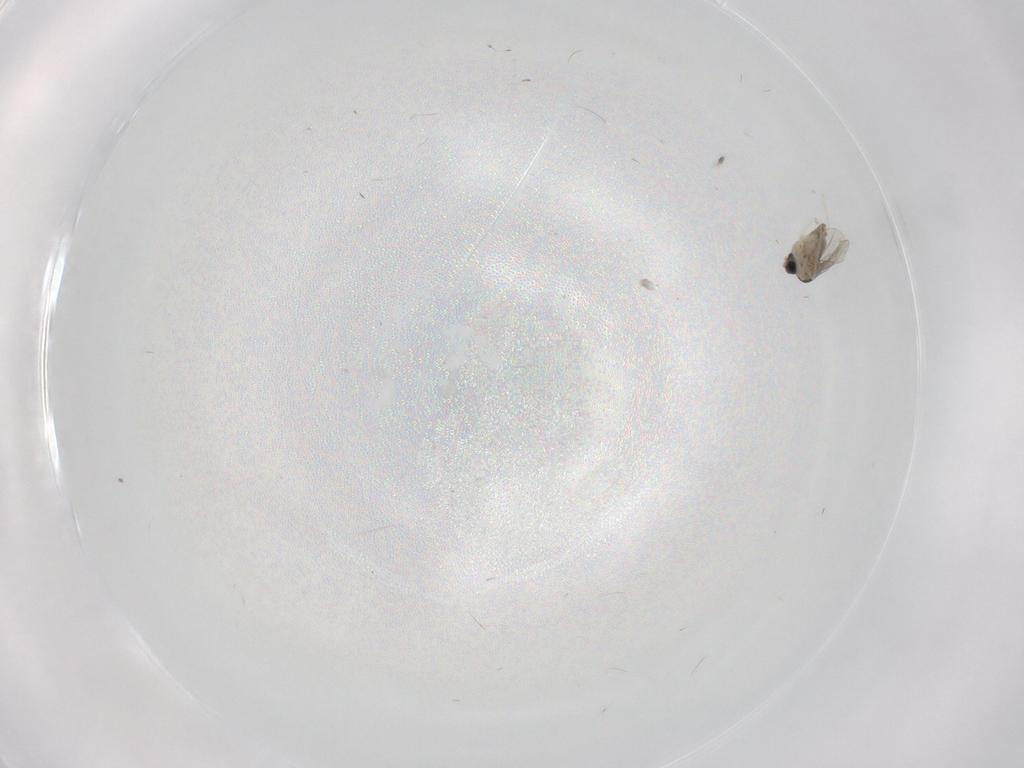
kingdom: Animalia
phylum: Arthropoda
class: Insecta
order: Diptera
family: Cecidomyiidae
